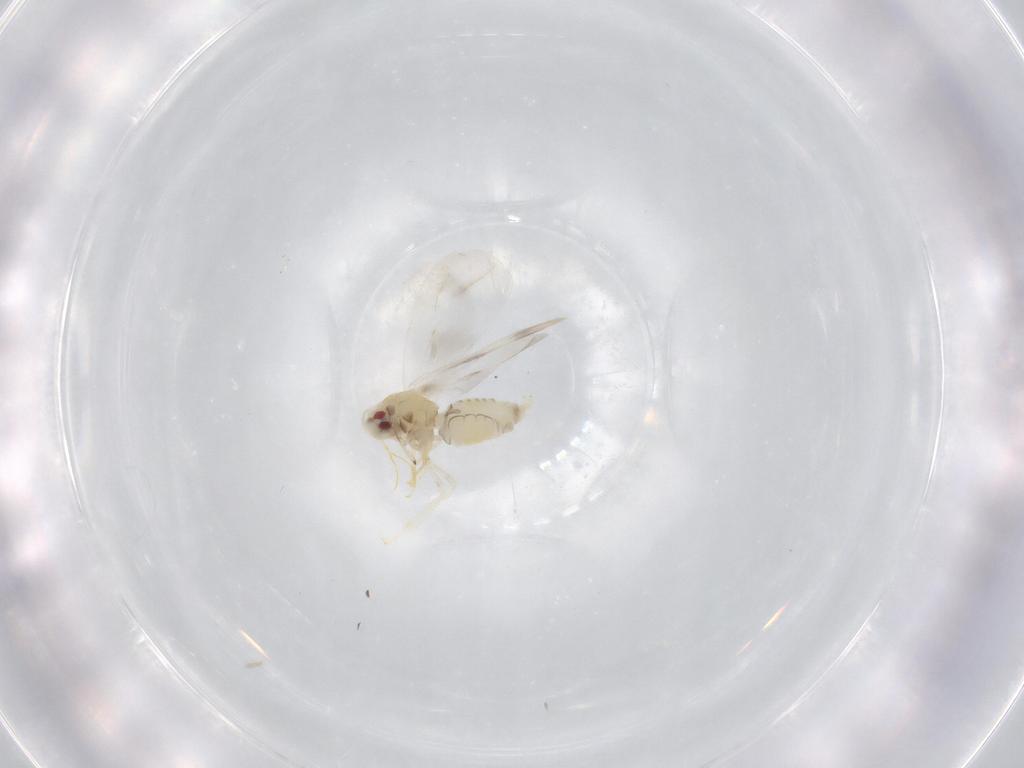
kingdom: Animalia
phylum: Arthropoda
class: Insecta
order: Hemiptera
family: Aleyrodidae
